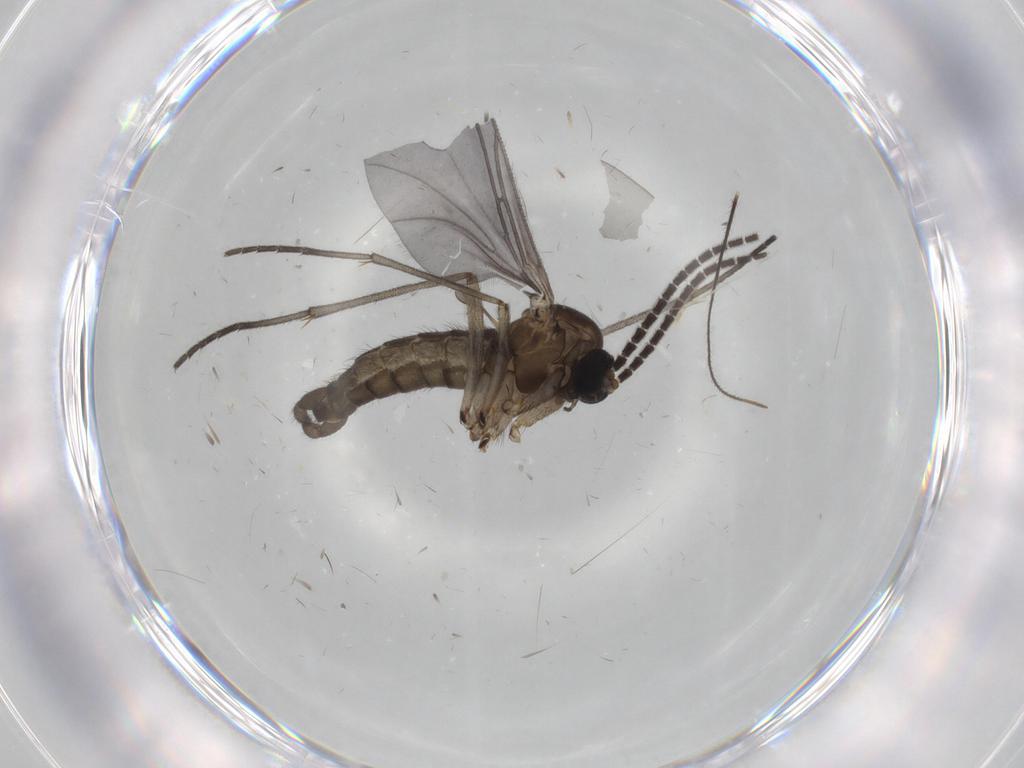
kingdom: Animalia
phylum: Arthropoda
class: Insecta
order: Diptera
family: Sciaridae
